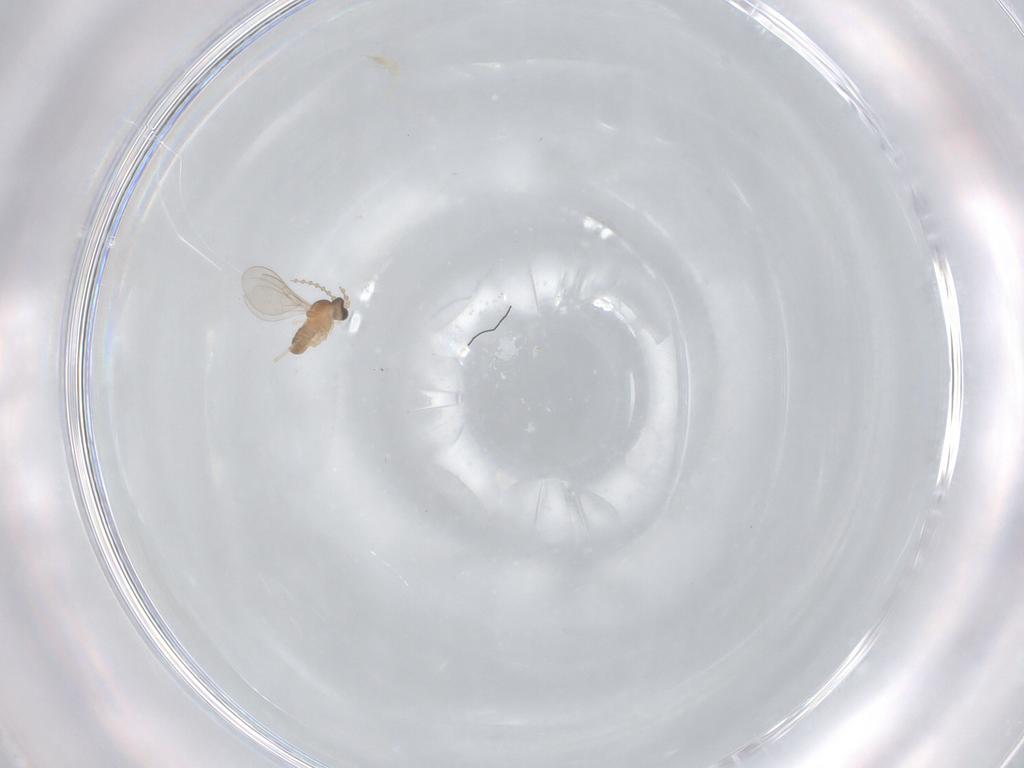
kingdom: Animalia
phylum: Arthropoda
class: Insecta
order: Diptera
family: Cecidomyiidae
